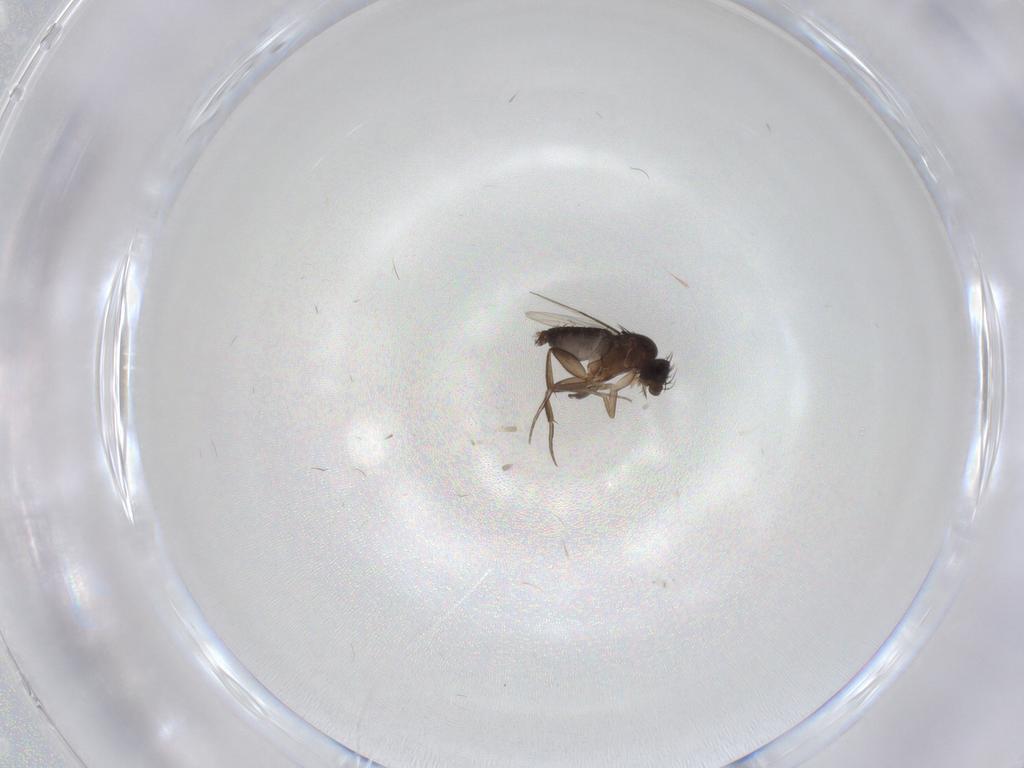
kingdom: Animalia
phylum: Arthropoda
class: Insecta
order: Diptera
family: Phoridae
